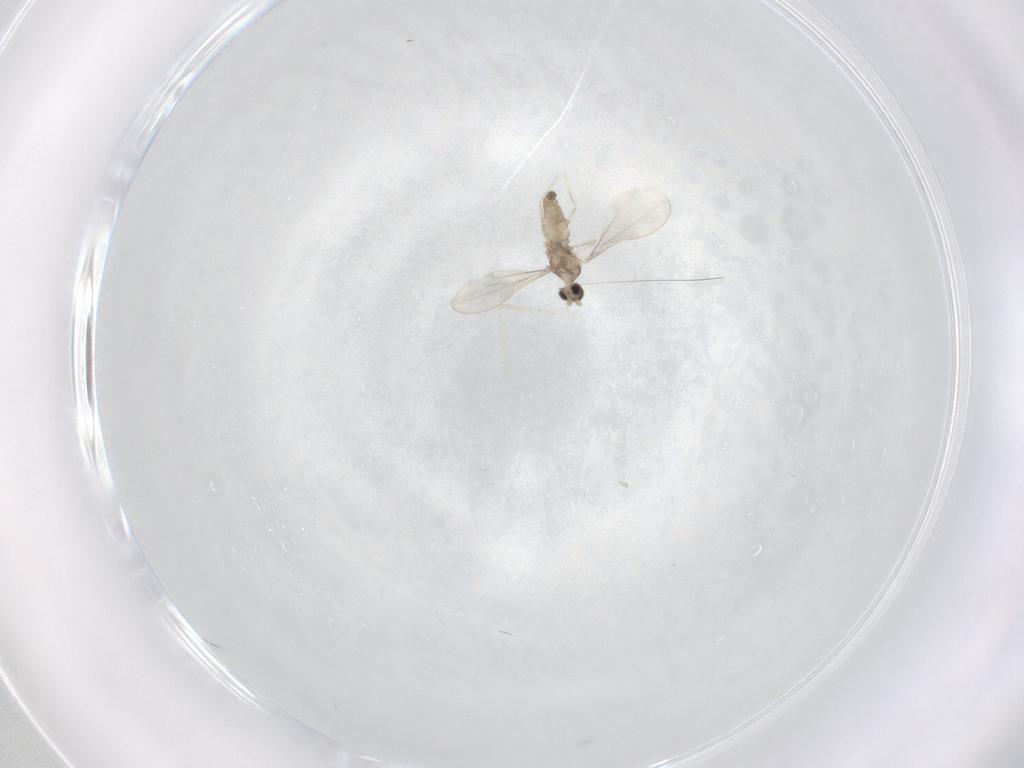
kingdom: Animalia
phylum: Arthropoda
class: Insecta
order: Diptera
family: Cecidomyiidae
